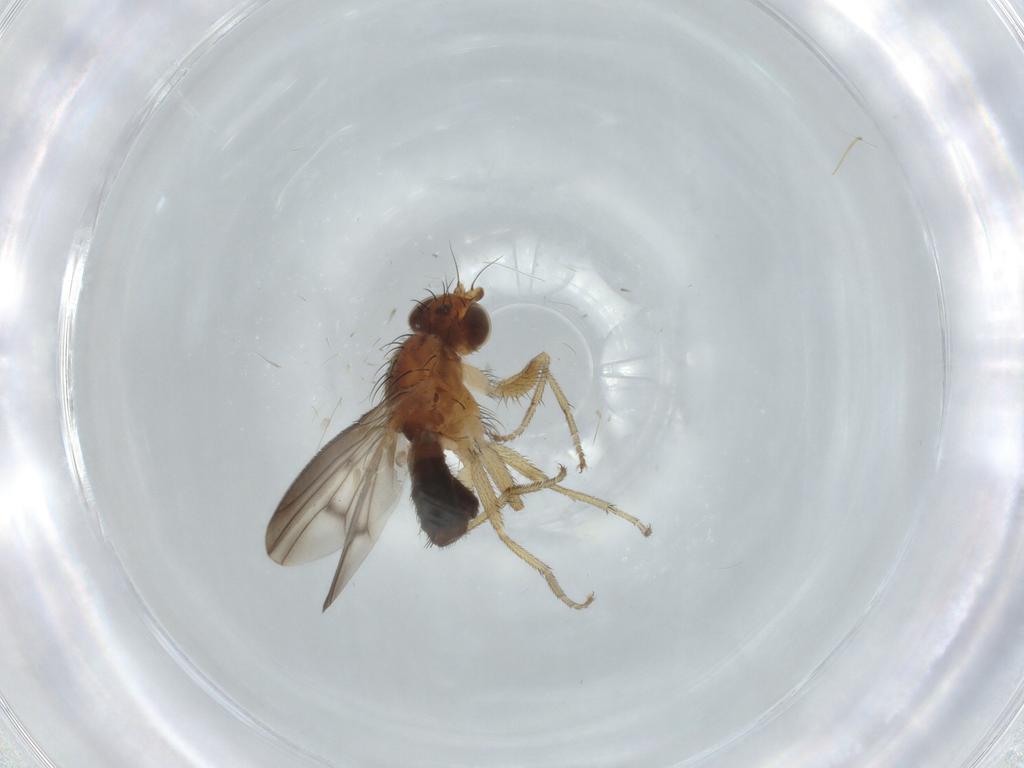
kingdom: Animalia
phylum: Arthropoda
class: Insecta
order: Diptera
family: Heleomyzidae
